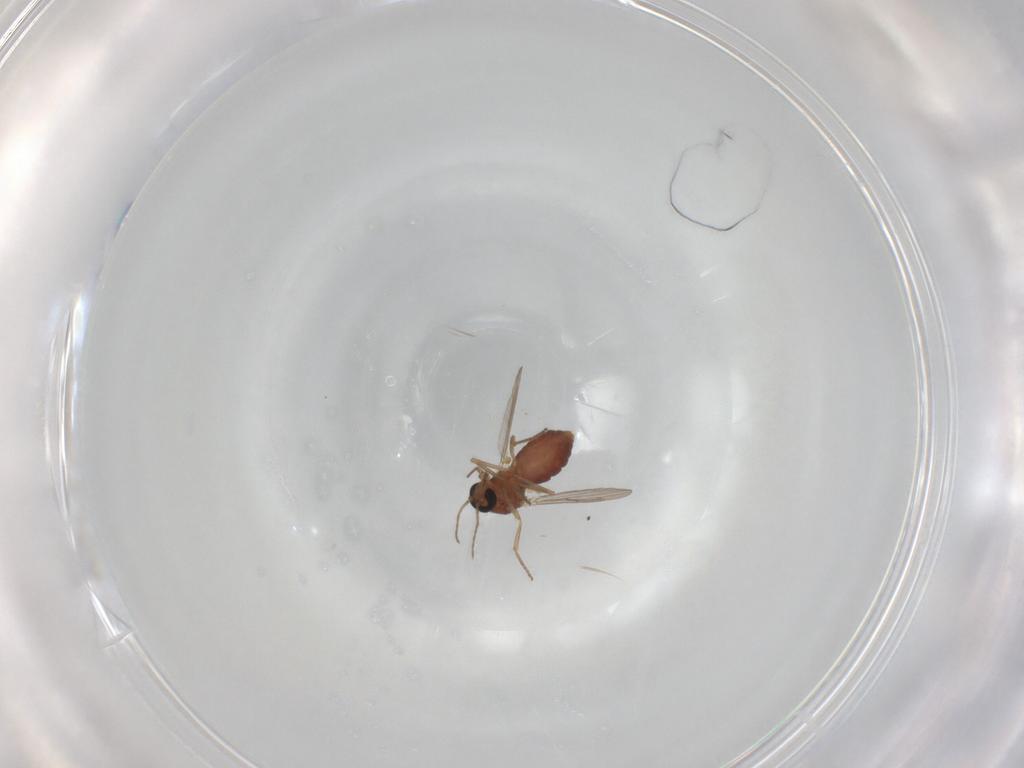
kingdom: Animalia
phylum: Arthropoda
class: Insecta
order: Diptera
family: Ceratopogonidae
